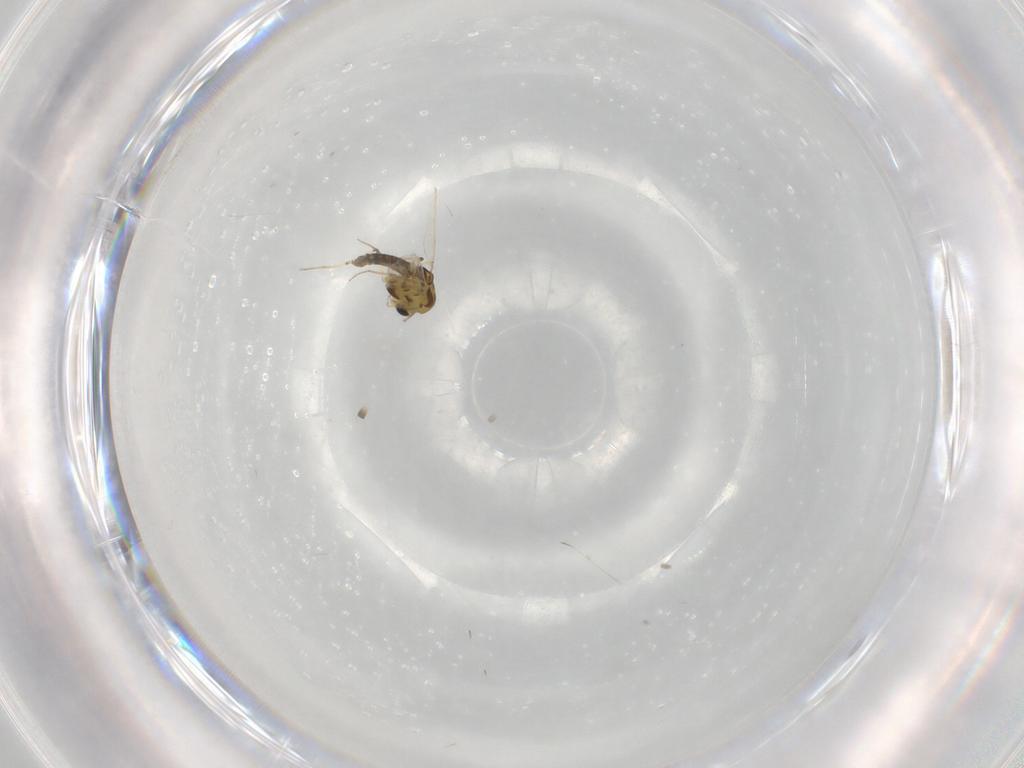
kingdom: Animalia
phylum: Arthropoda
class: Insecta
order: Diptera
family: Chironomidae
